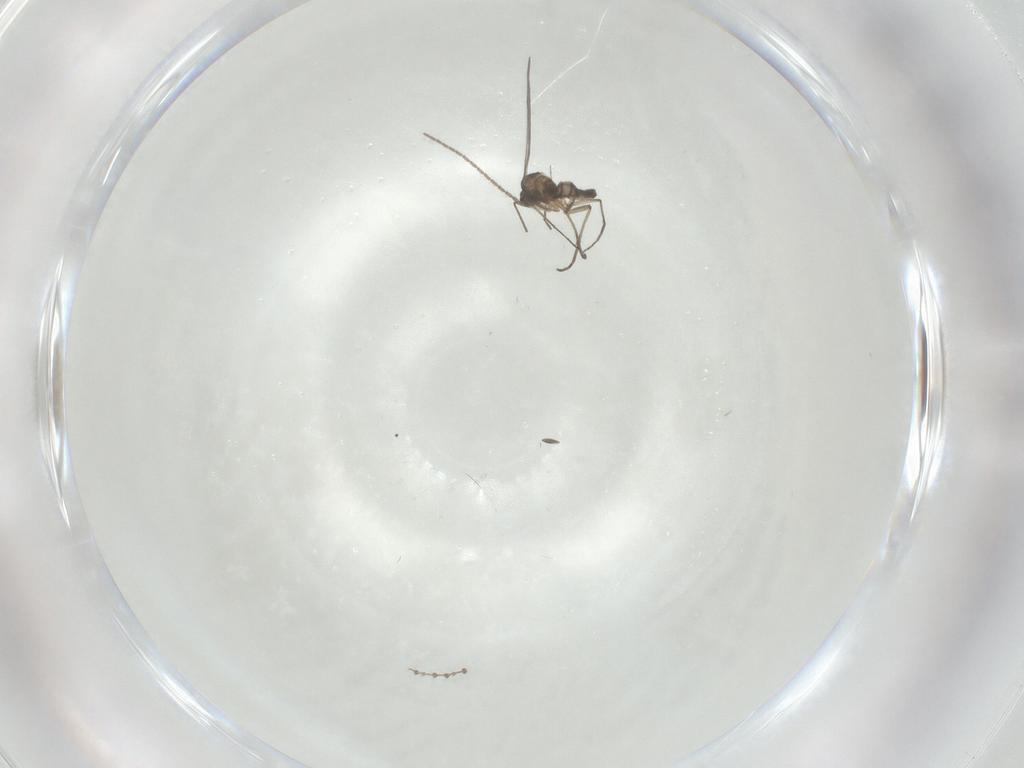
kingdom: Animalia
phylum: Arthropoda
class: Insecta
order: Diptera
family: Sciaridae
